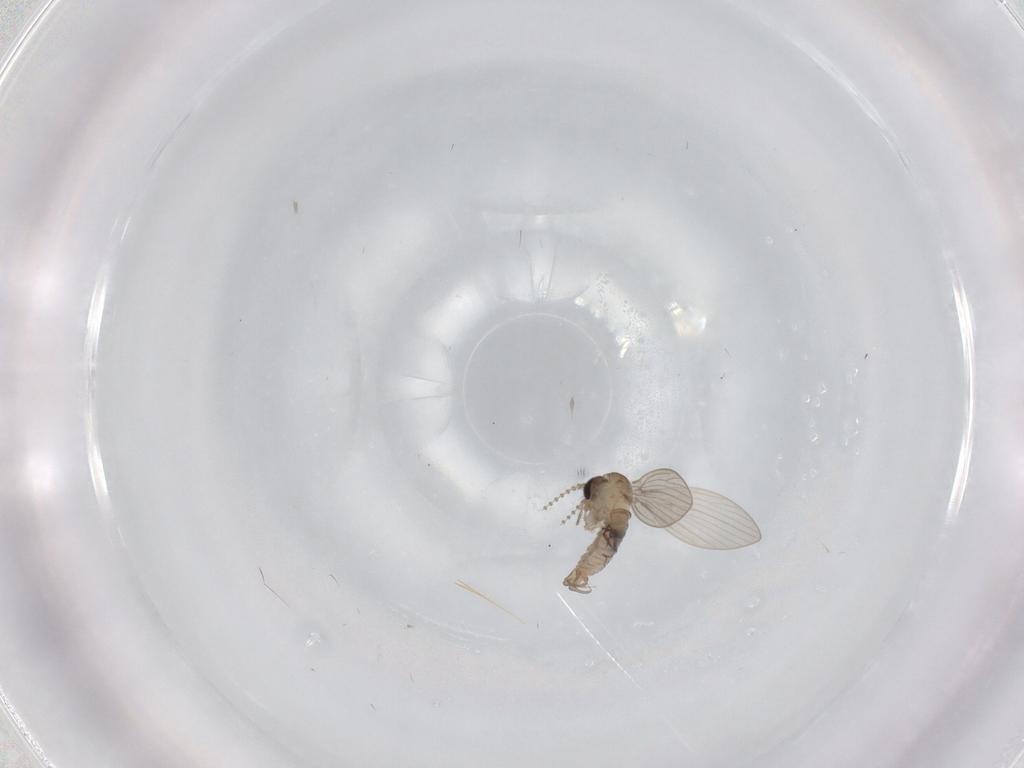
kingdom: Animalia
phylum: Arthropoda
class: Insecta
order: Diptera
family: Psychodidae
